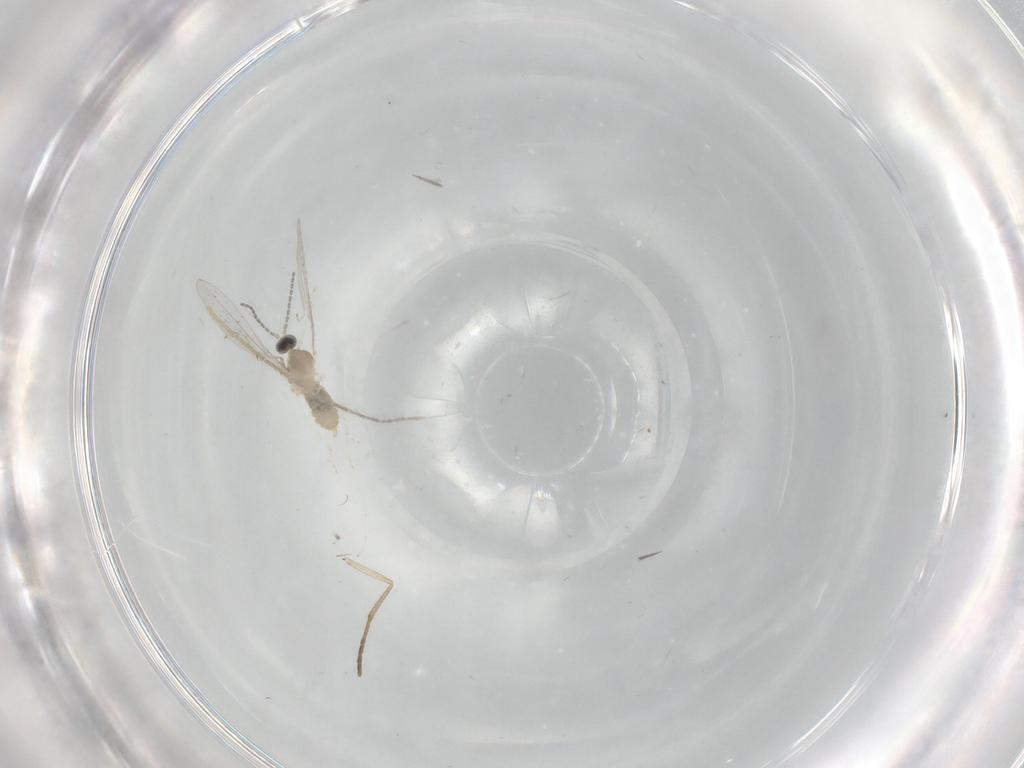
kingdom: Animalia
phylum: Arthropoda
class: Insecta
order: Diptera
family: Cecidomyiidae
